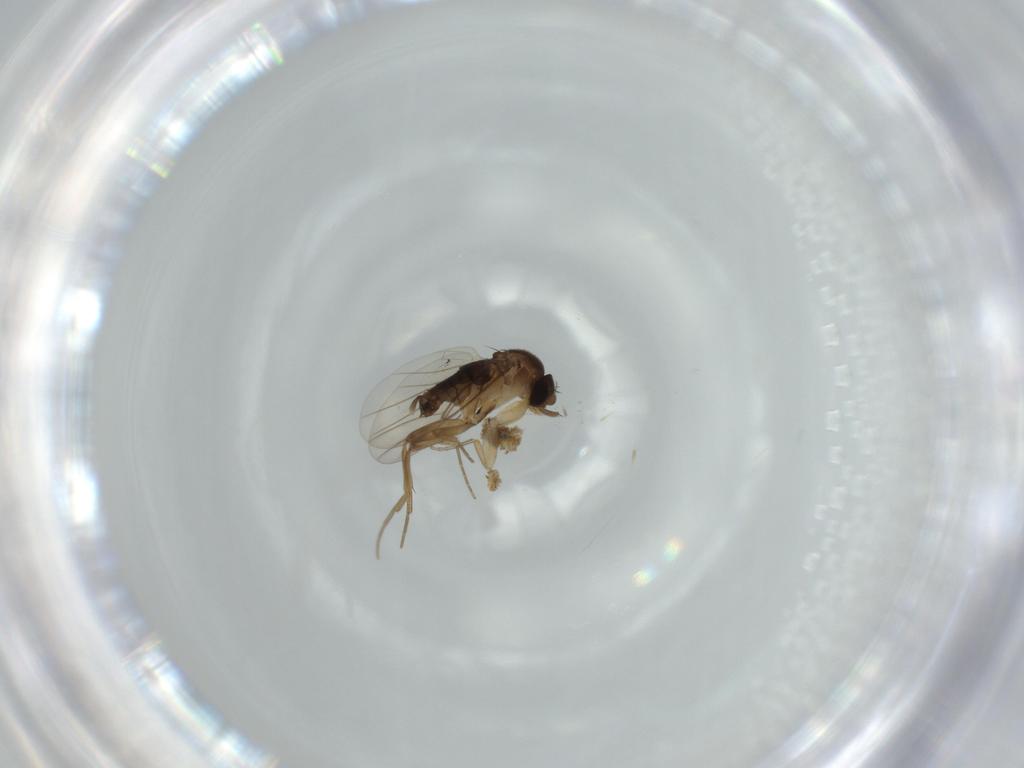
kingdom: Animalia
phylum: Arthropoda
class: Insecta
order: Diptera
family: Phoridae
